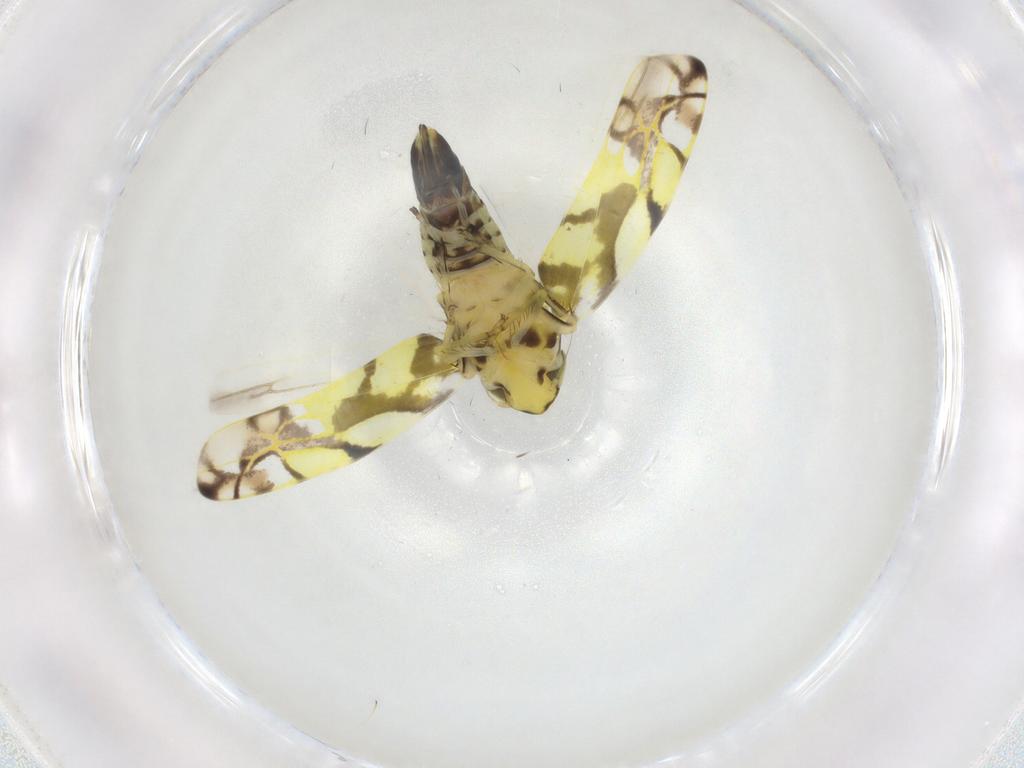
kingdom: Animalia
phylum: Arthropoda
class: Insecta
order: Hemiptera
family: Cicadellidae
